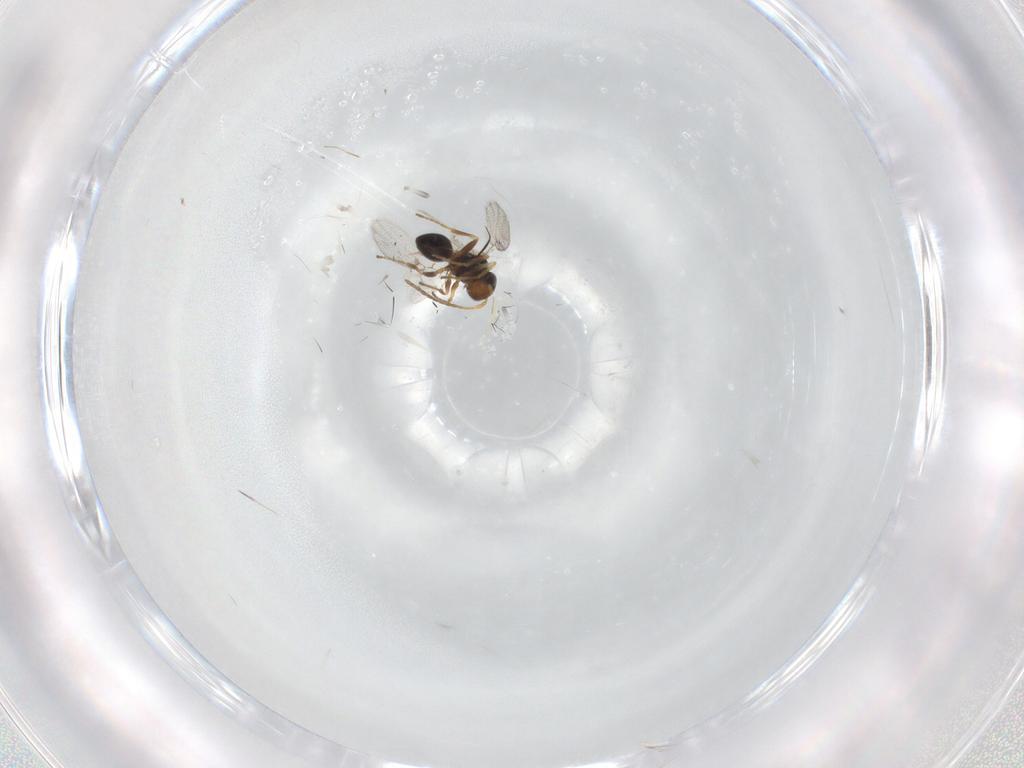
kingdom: Animalia
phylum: Arthropoda
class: Insecta
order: Hymenoptera
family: Figitidae
